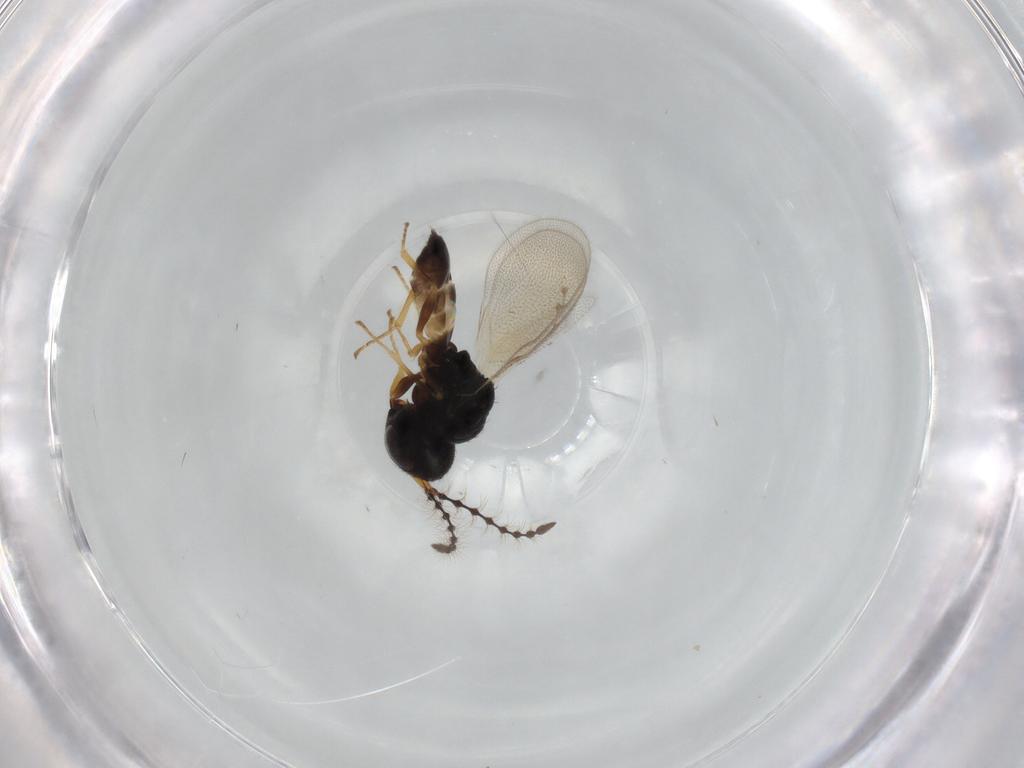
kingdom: Animalia
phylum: Arthropoda
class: Insecta
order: Hymenoptera
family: Pteromalidae
